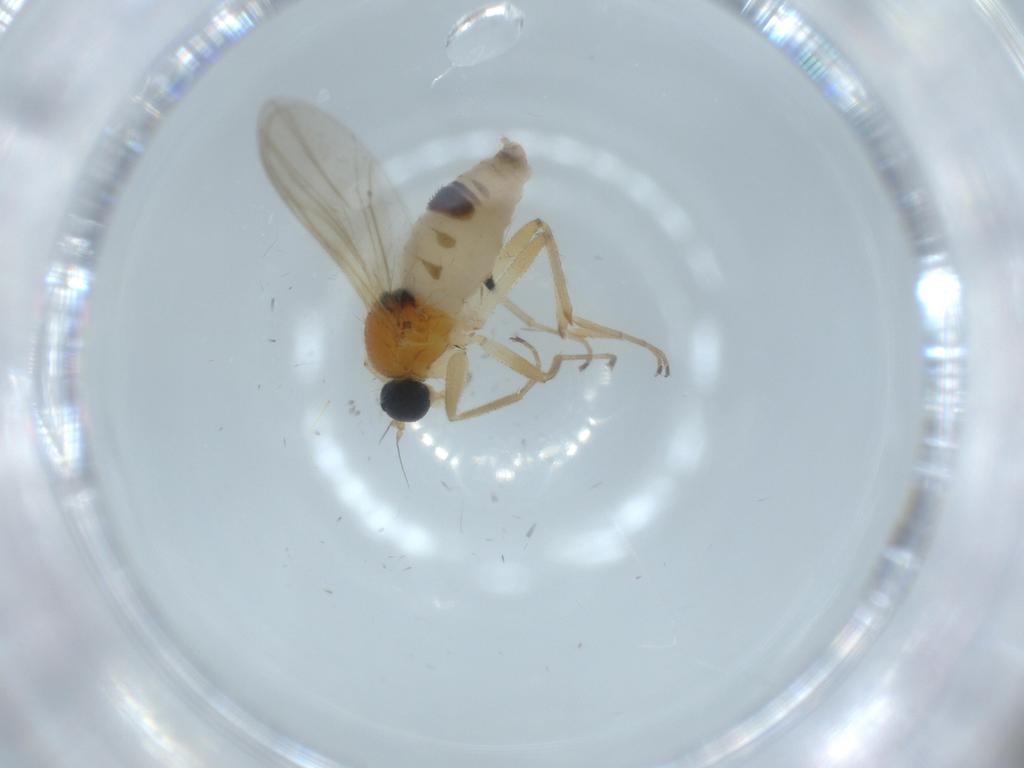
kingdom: Animalia
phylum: Arthropoda
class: Insecta
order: Diptera
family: Hybotidae
